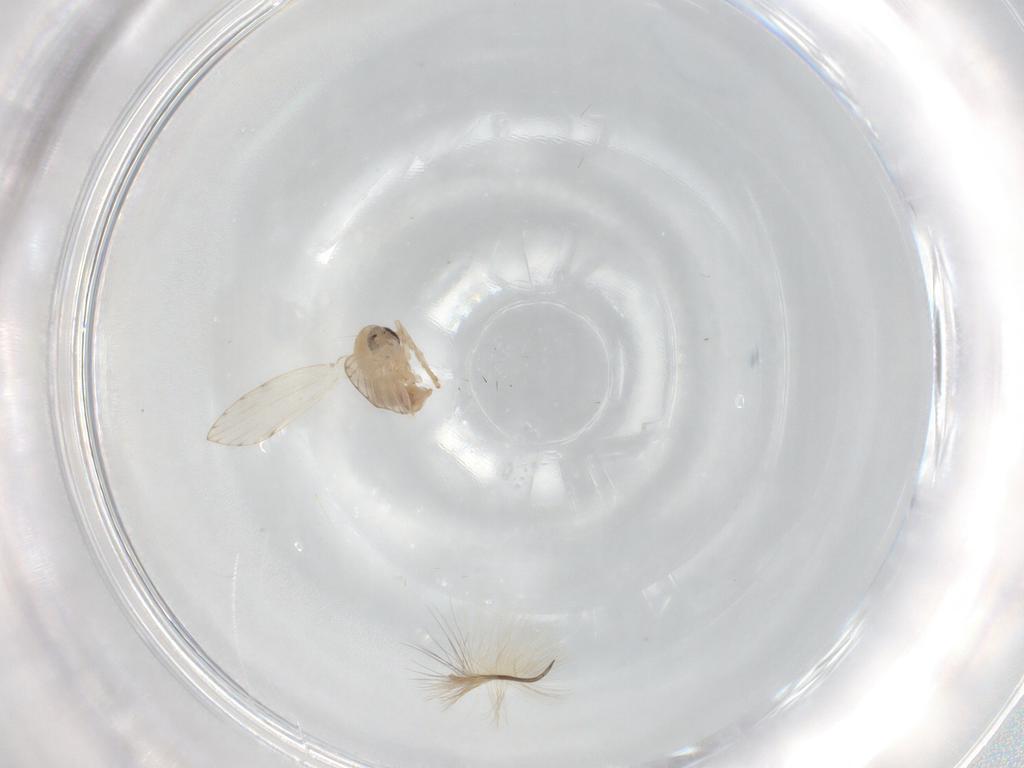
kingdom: Animalia
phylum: Arthropoda
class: Insecta
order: Diptera
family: Psychodidae
